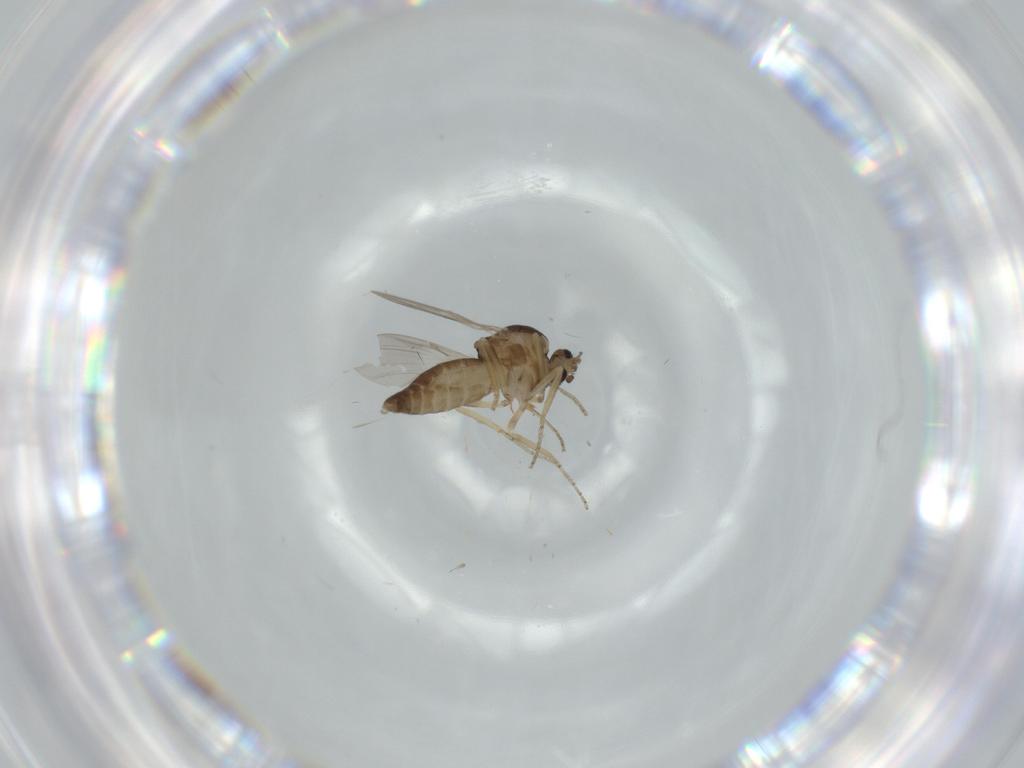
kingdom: Animalia
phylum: Arthropoda
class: Insecta
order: Diptera
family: Ceratopogonidae
